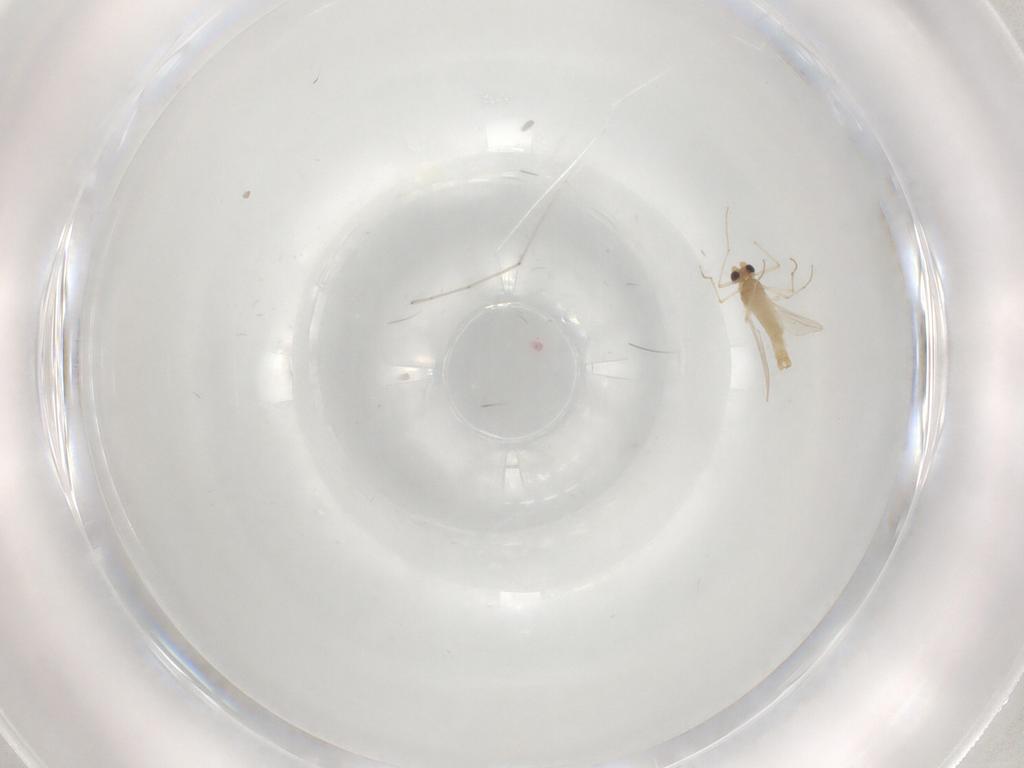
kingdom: Animalia
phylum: Arthropoda
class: Insecta
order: Diptera
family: Chironomidae
